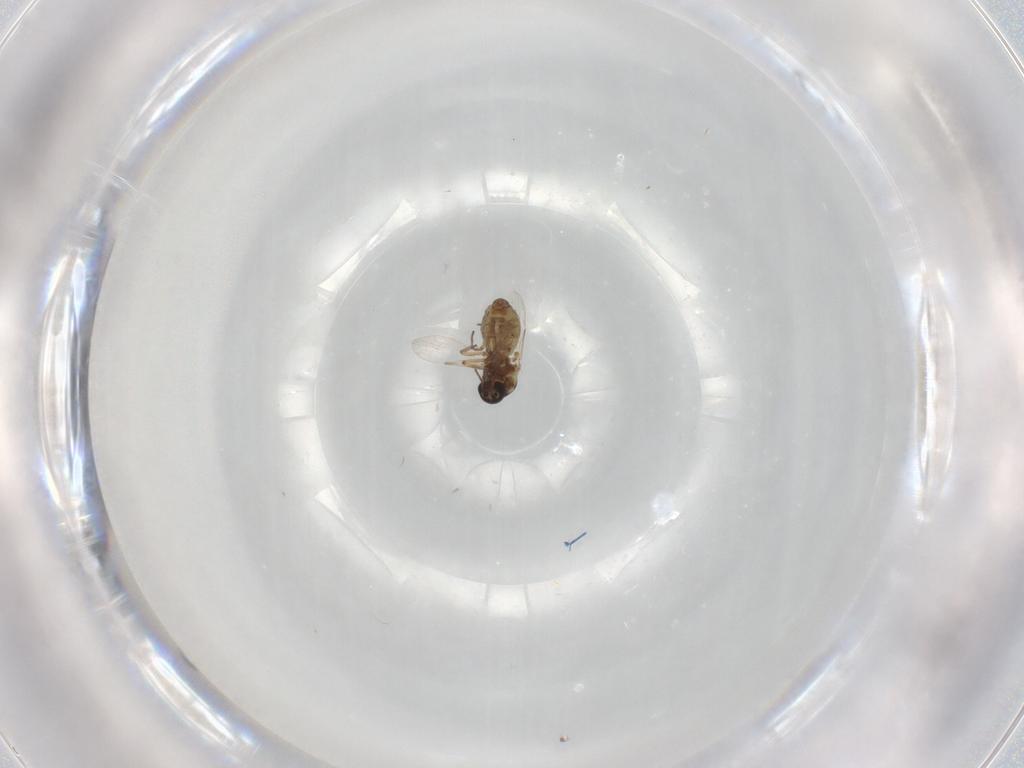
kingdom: Animalia
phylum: Arthropoda
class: Insecta
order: Diptera
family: Ceratopogonidae
